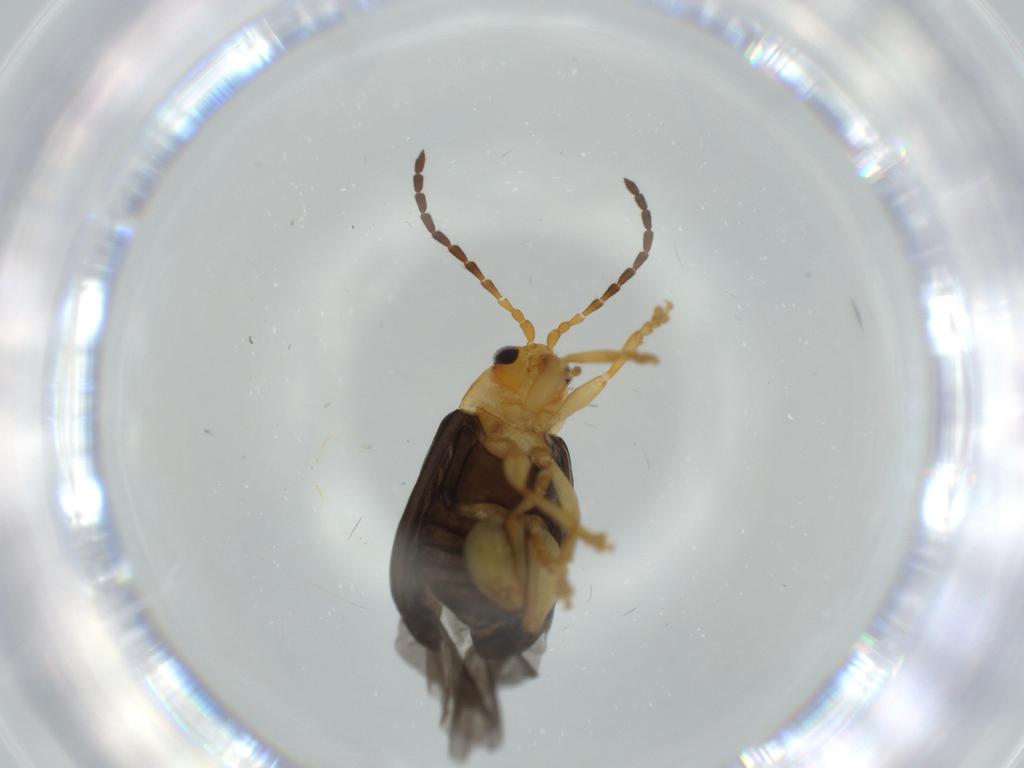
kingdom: Animalia
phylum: Arthropoda
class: Insecta
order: Coleoptera
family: Chrysomelidae
